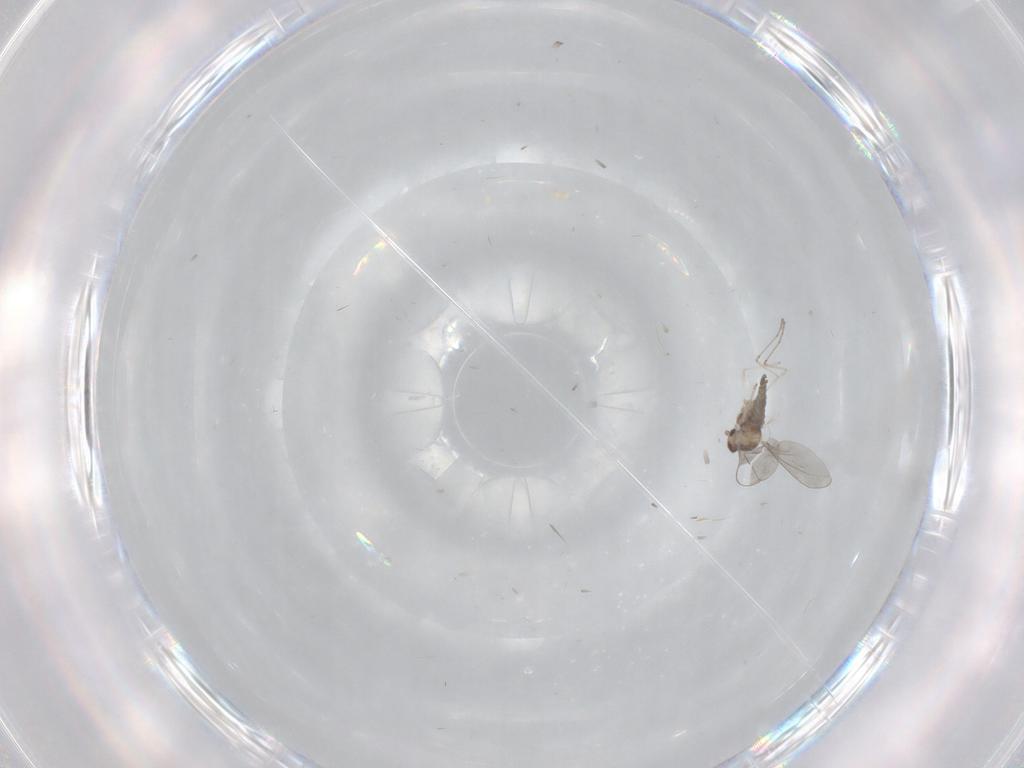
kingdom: Animalia
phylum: Arthropoda
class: Insecta
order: Diptera
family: Cecidomyiidae
